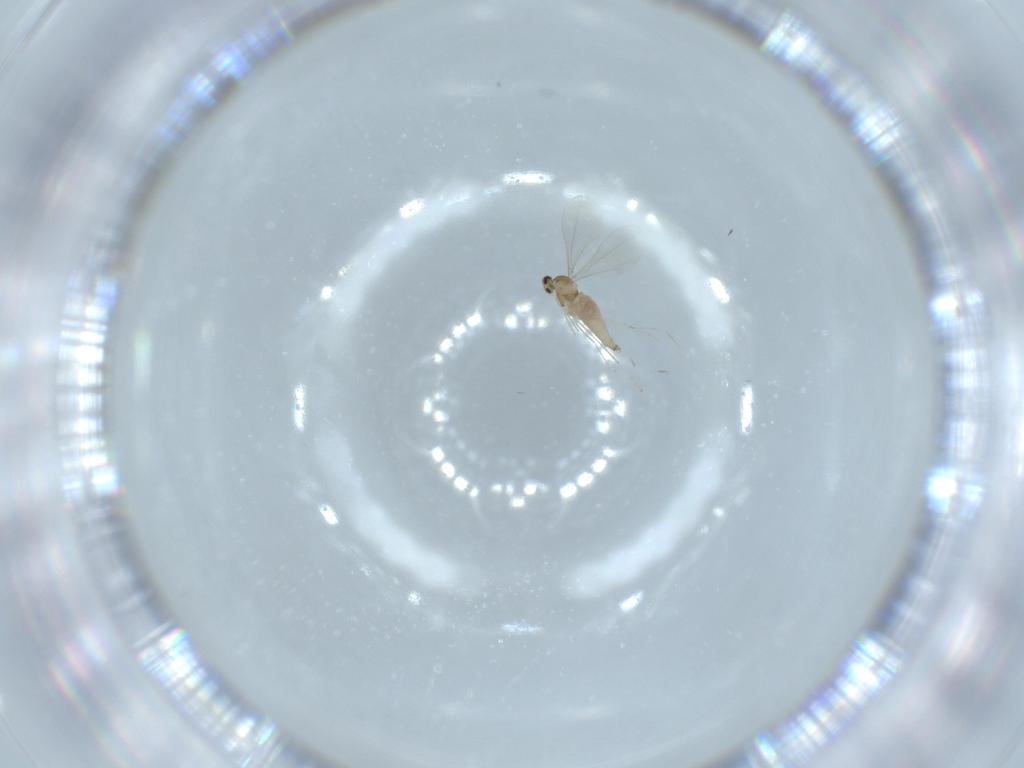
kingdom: Animalia
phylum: Arthropoda
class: Insecta
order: Diptera
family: Cecidomyiidae
